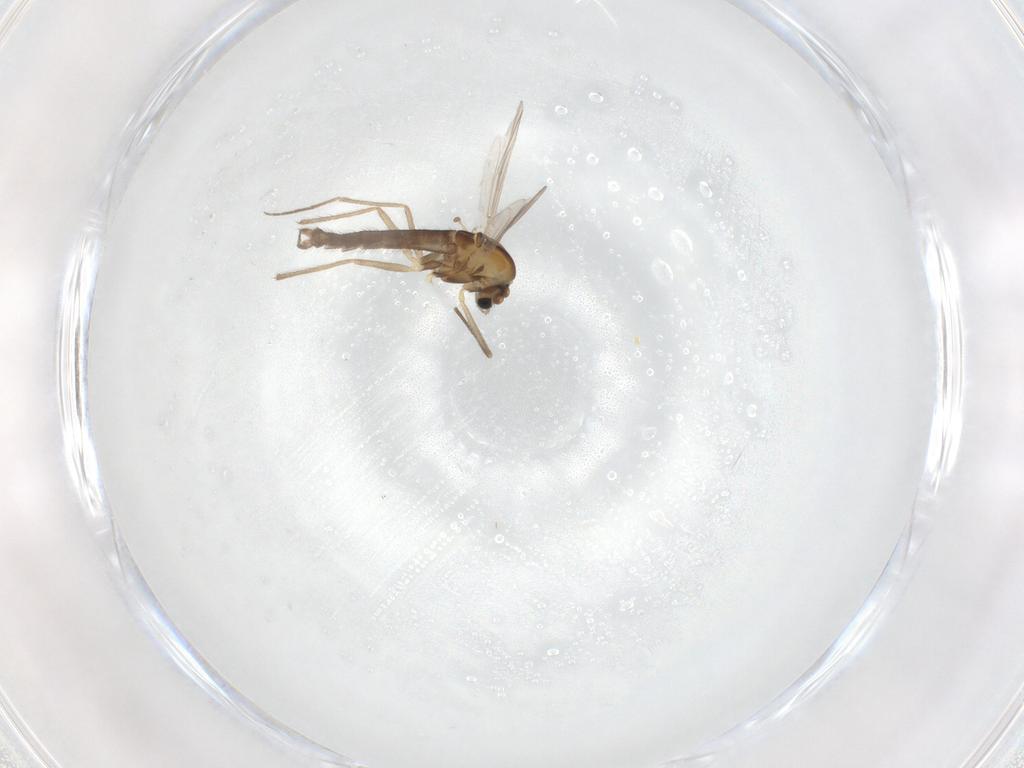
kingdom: Animalia
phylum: Arthropoda
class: Insecta
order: Diptera
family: Chironomidae
